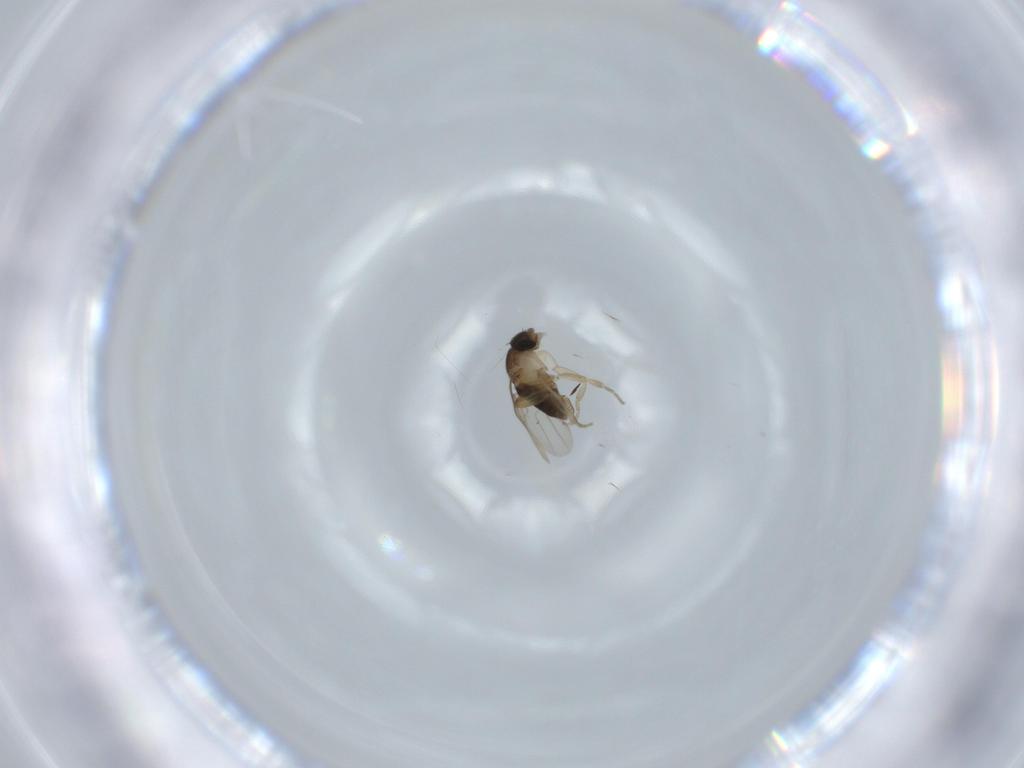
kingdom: Animalia
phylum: Arthropoda
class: Insecta
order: Diptera
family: Phoridae
